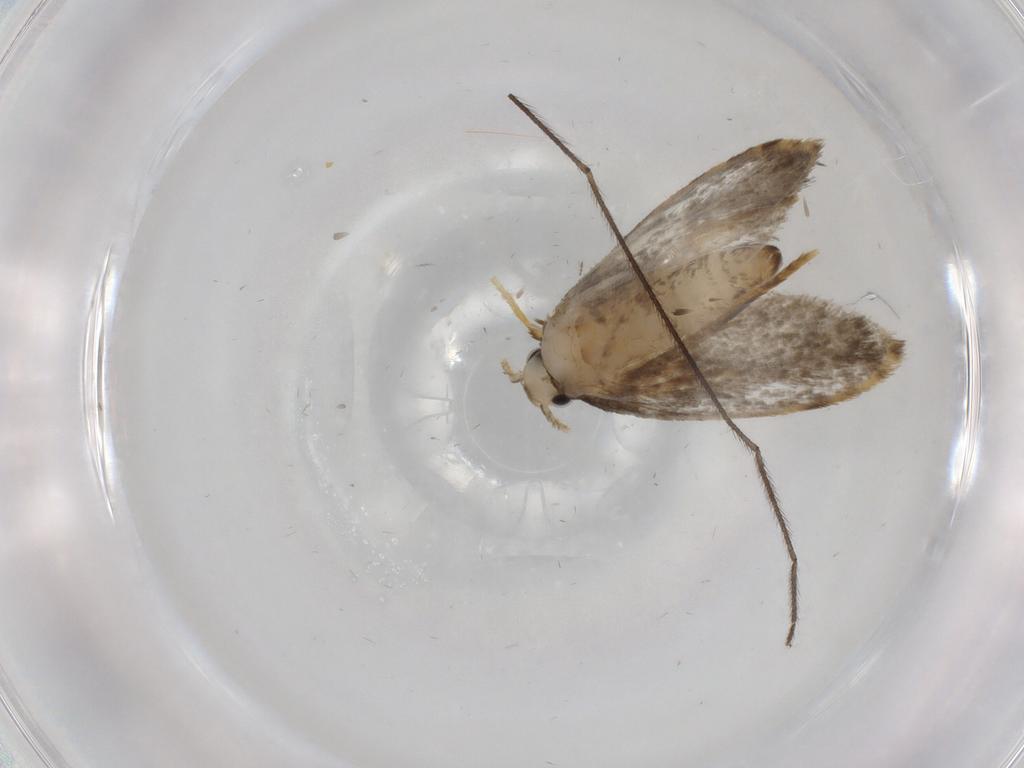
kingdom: Animalia
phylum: Arthropoda
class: Insecta
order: Lepidoptera
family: Psychidae
